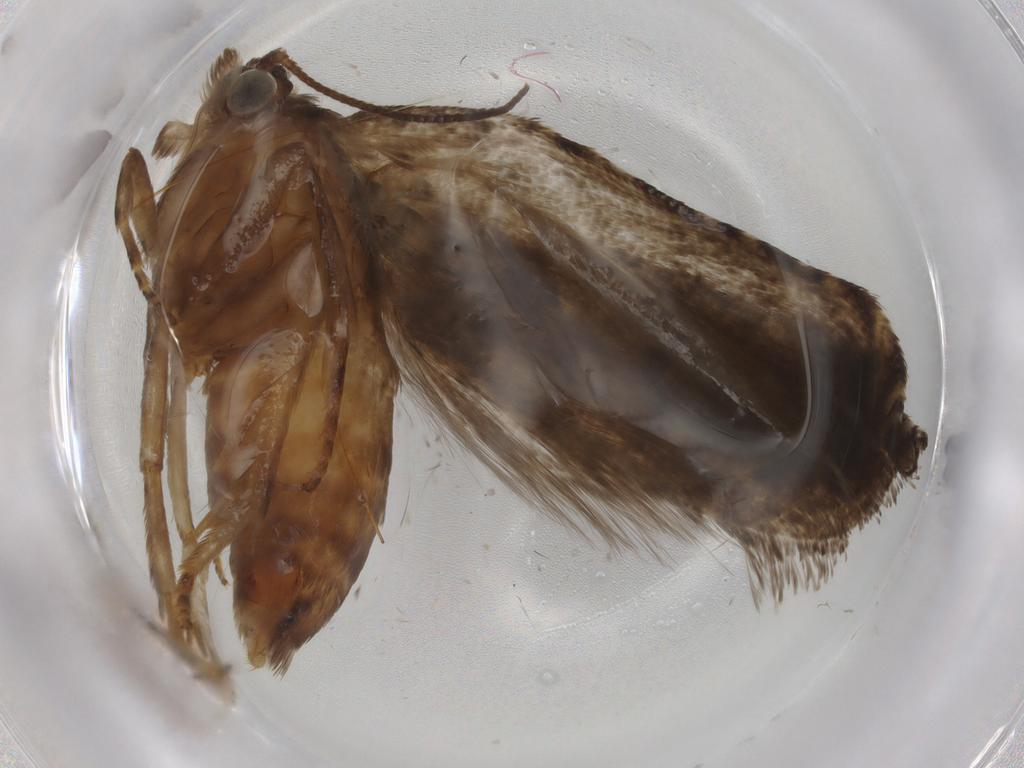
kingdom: Animalia
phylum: Arthropoda
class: Insecta
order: Lepidoptera
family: Tortricidae
